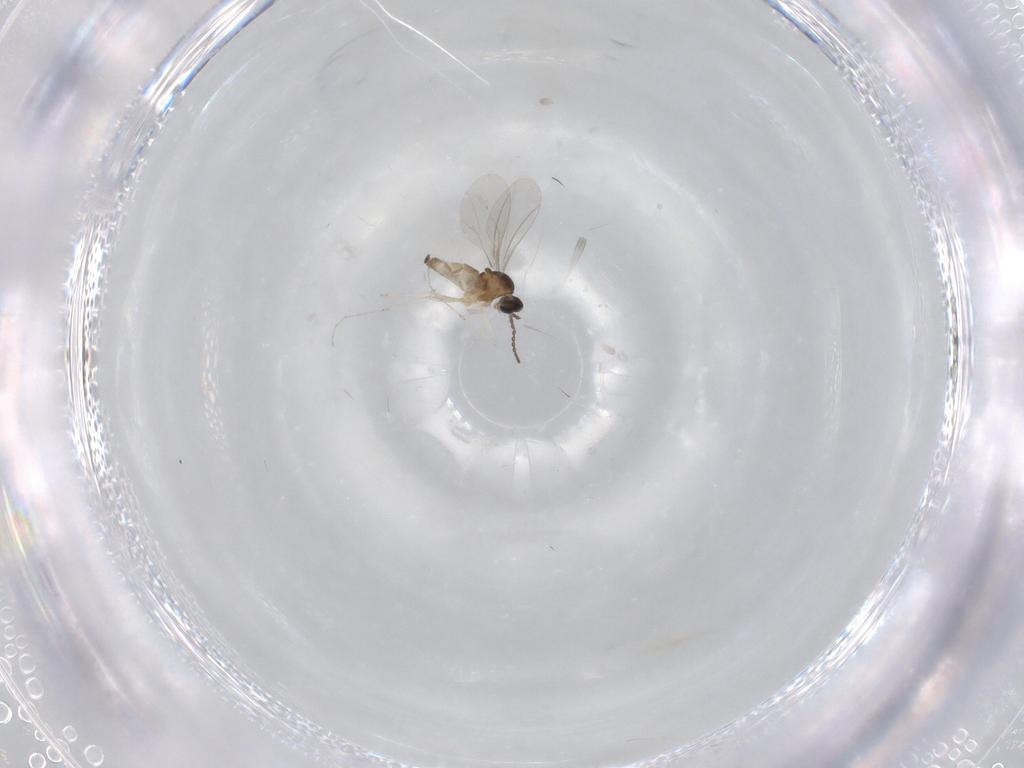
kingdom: Animalia
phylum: Arthropoda
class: Insecta
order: Diptera
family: Cecidomyiidae
